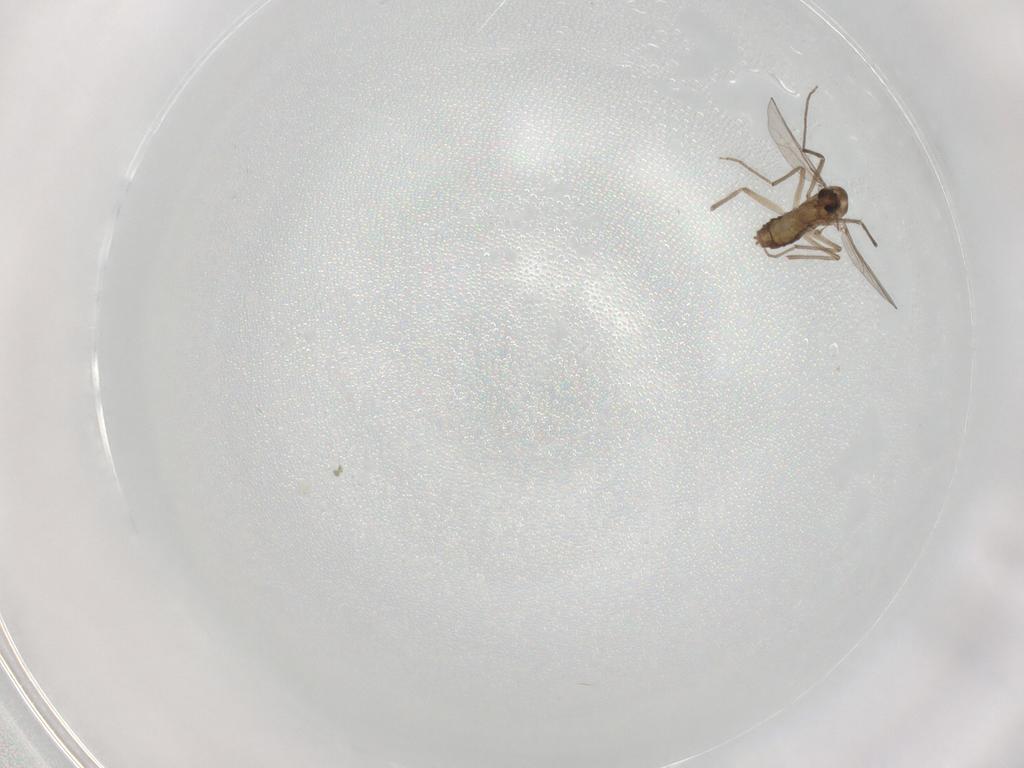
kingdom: Animalia
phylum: Arthropoda
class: Insecta
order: Diptera
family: Chironomidae
